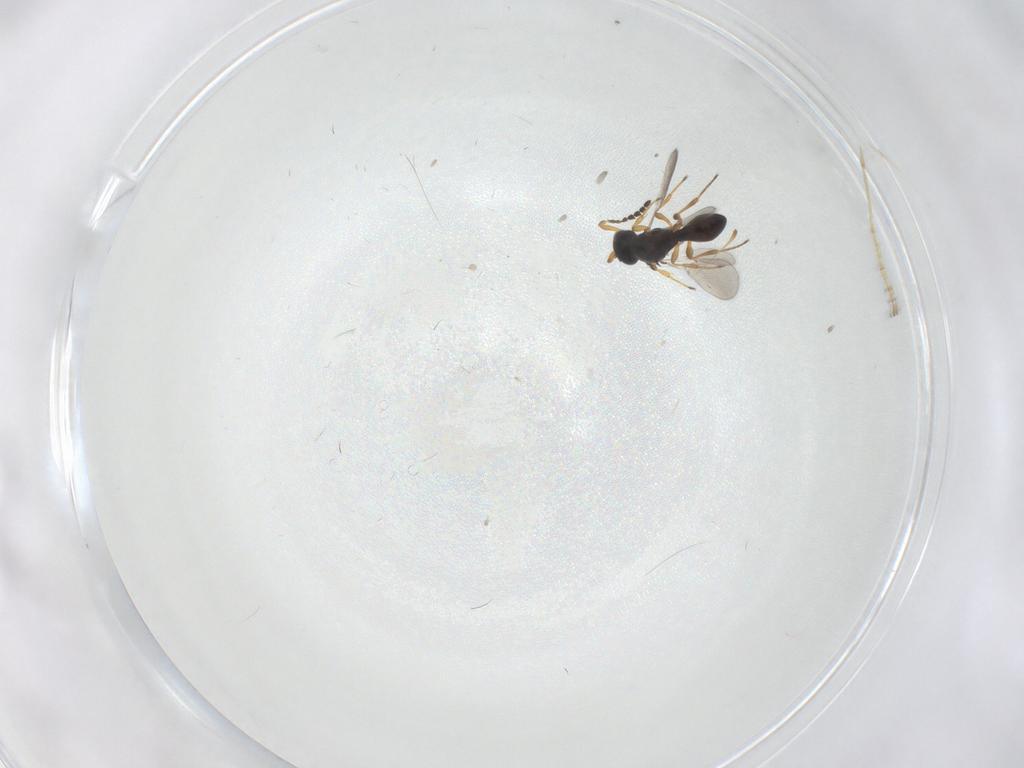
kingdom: Animalia
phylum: Arthropoda
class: Insecta
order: Hymenoptera
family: Platygastridae
